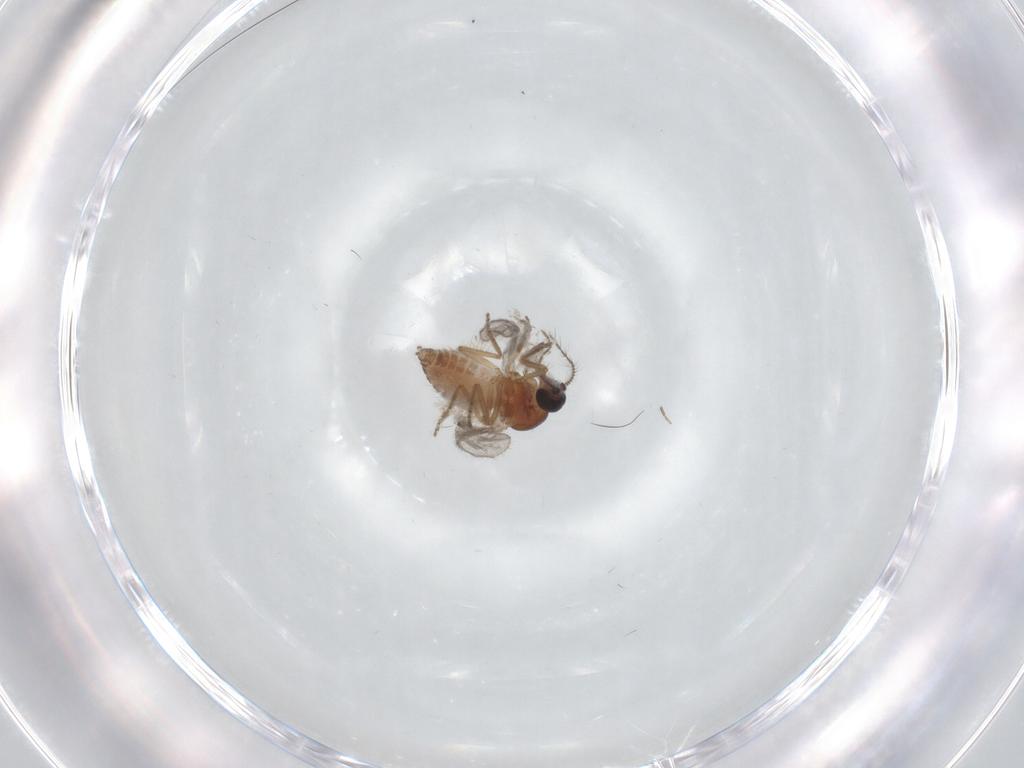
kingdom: Animalia
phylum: Arthropoda
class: Insecta
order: Diptera
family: Ceratopogonidae
